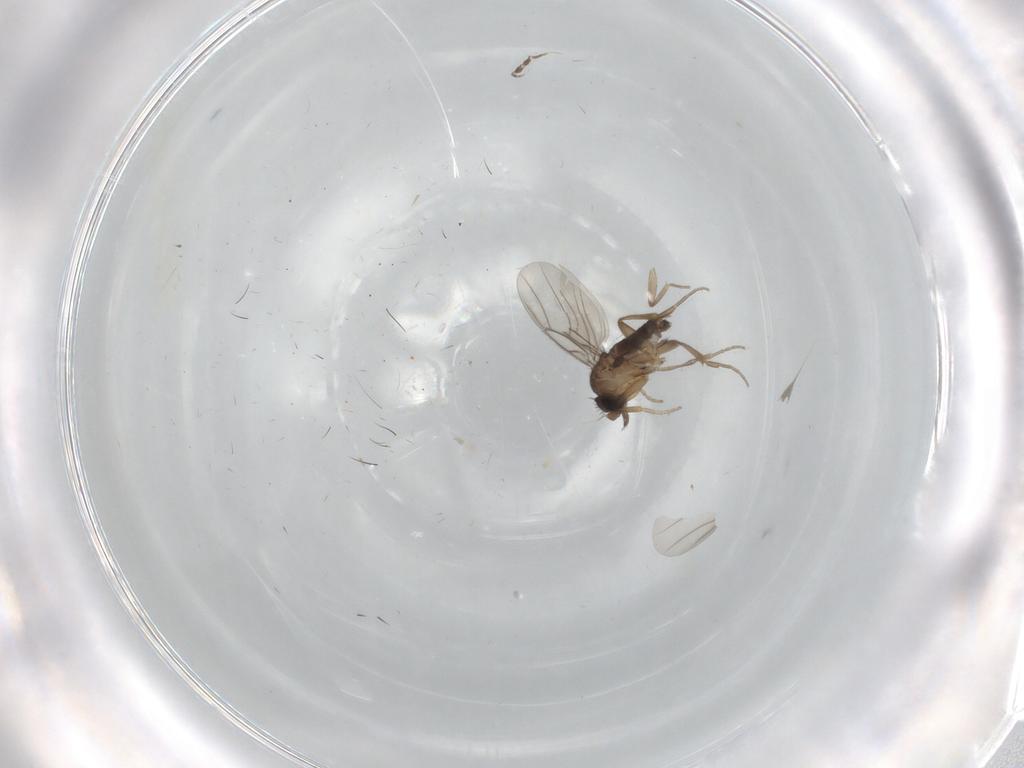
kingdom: Animalia
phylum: Arthropoda
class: Insecta
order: Diptera
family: Phoridae
